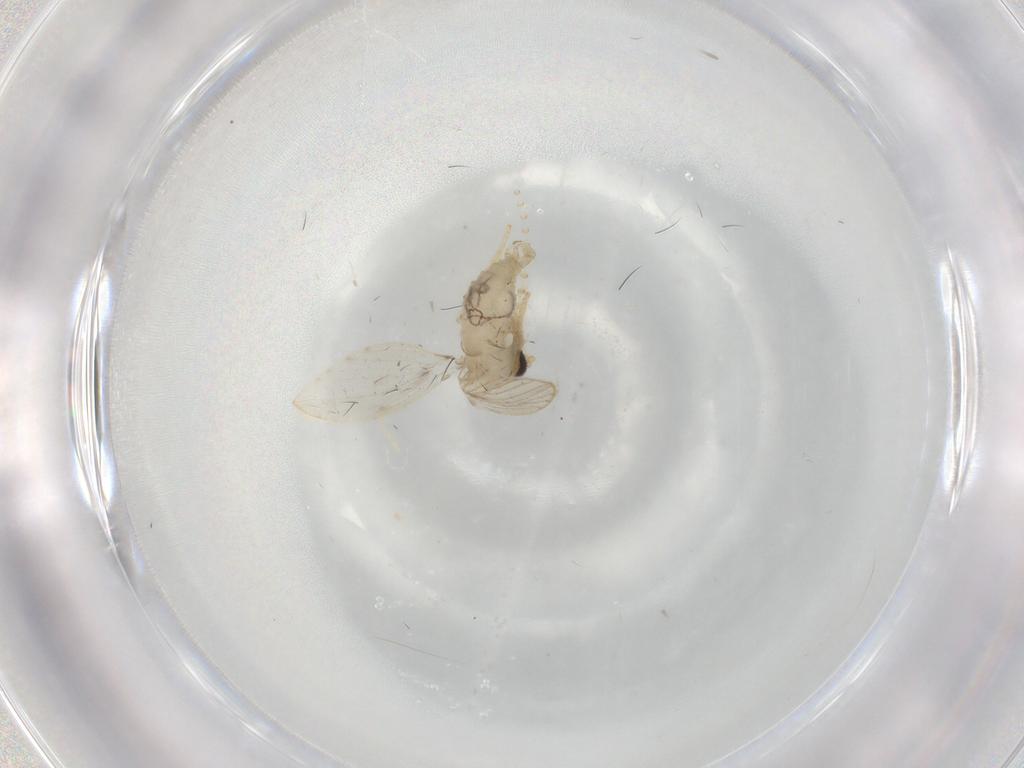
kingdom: Animalia
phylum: Arthropoda
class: Insecta
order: Diptera
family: Psychodidae
